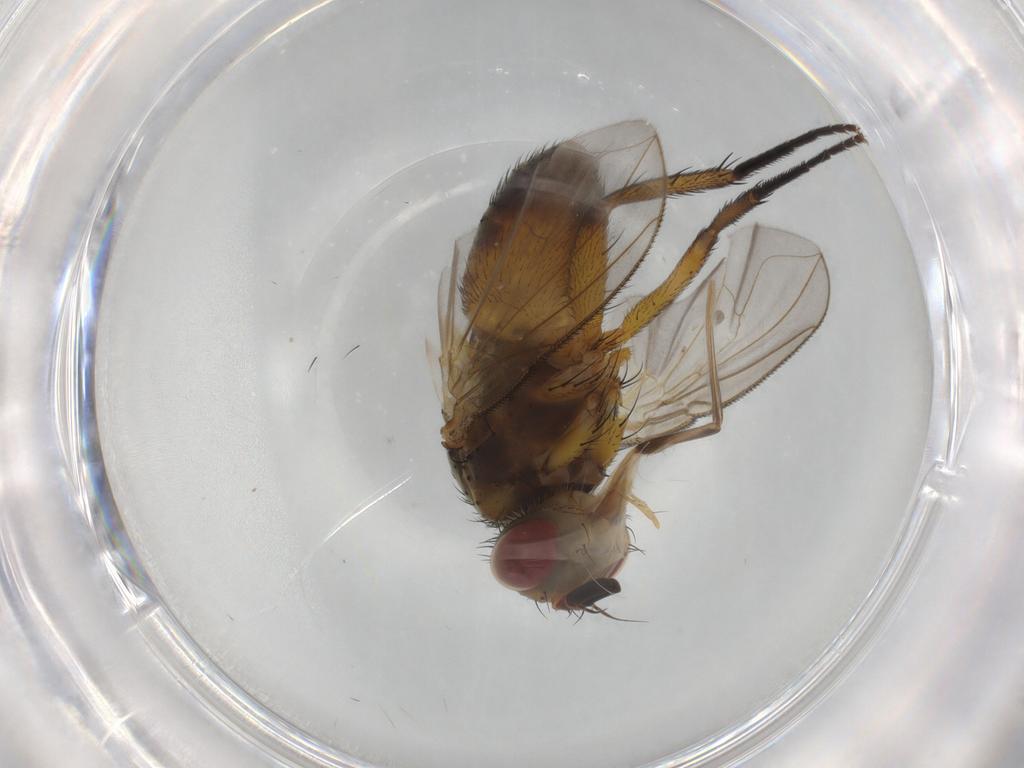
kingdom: Animalia
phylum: Arthropoda
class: Insecta
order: Diptera
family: Tachinidae
